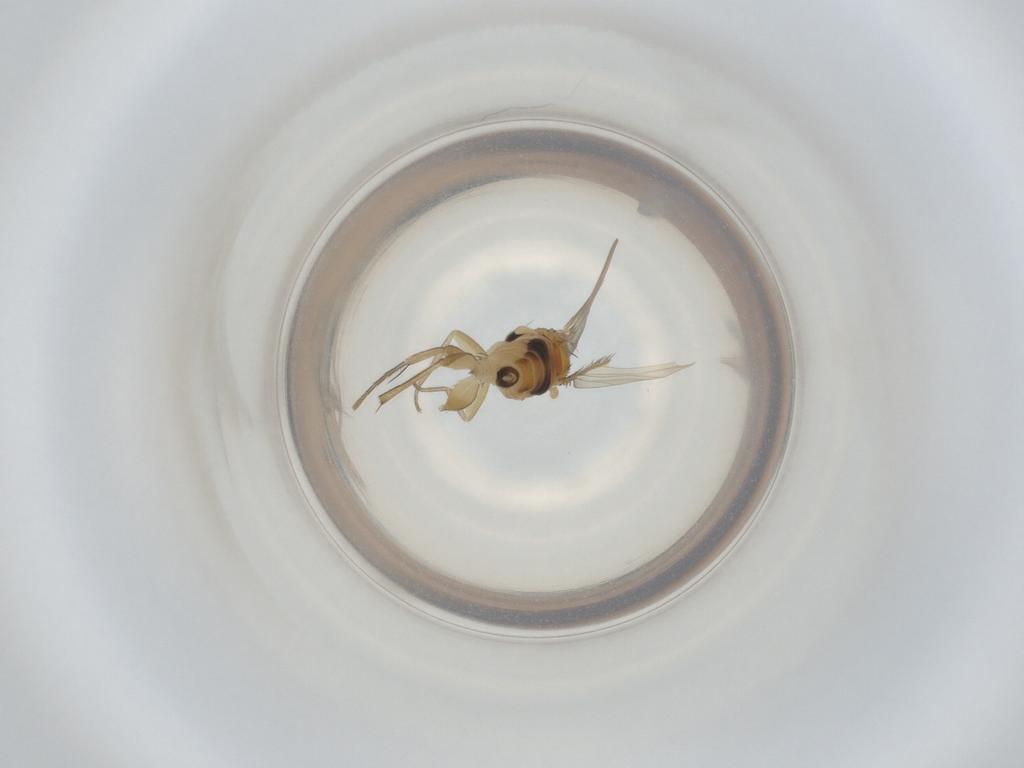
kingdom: Animalia
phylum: Arthropoda
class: Insecta
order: Diptera
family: Phoridae
